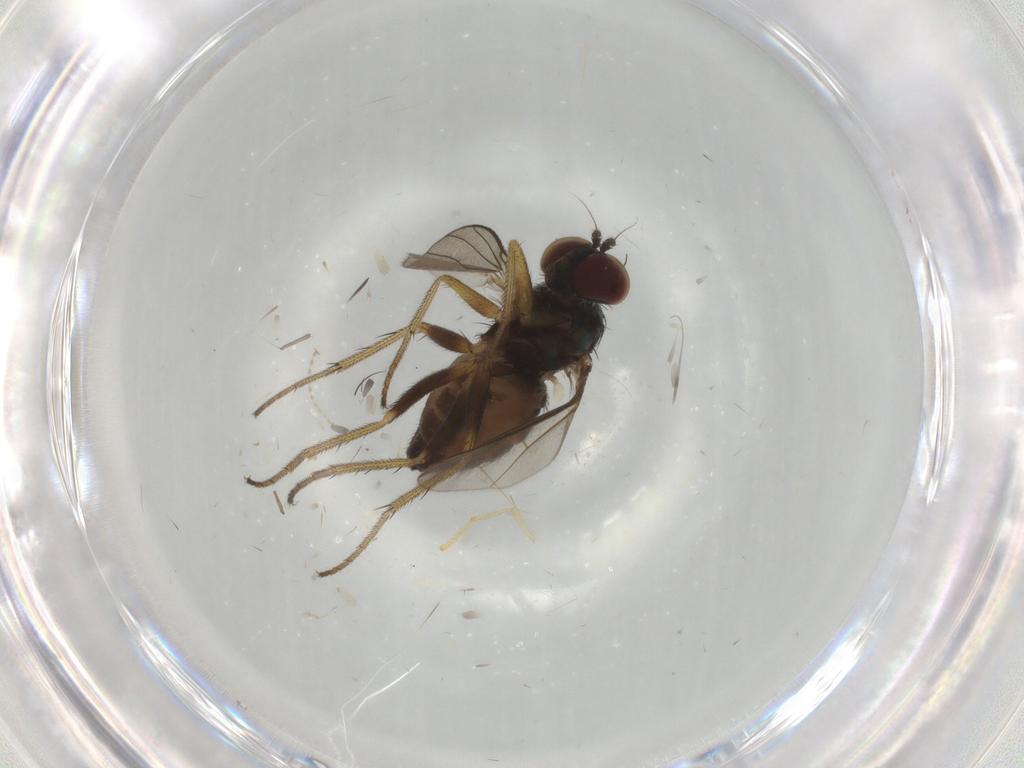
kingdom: Animalia
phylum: Arthropoda
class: Insecta
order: Diptera
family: Cecidomyiidae
